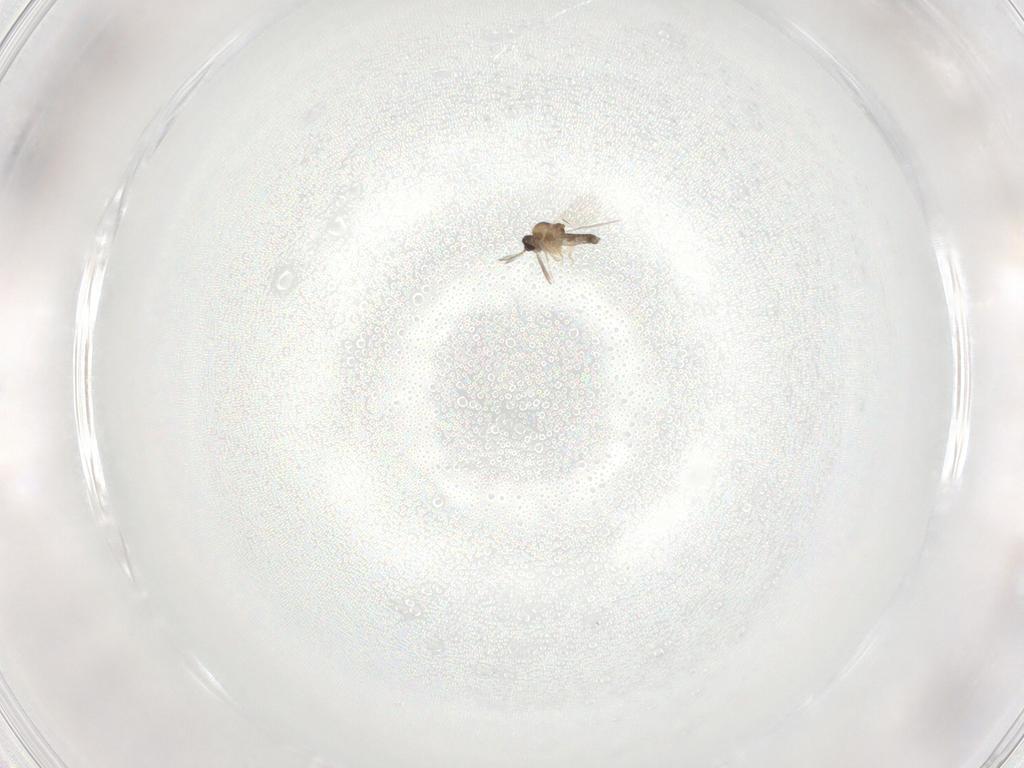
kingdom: Animalia
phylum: Arthropoda
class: Insecta
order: Diptera
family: Ceratopogonidae
